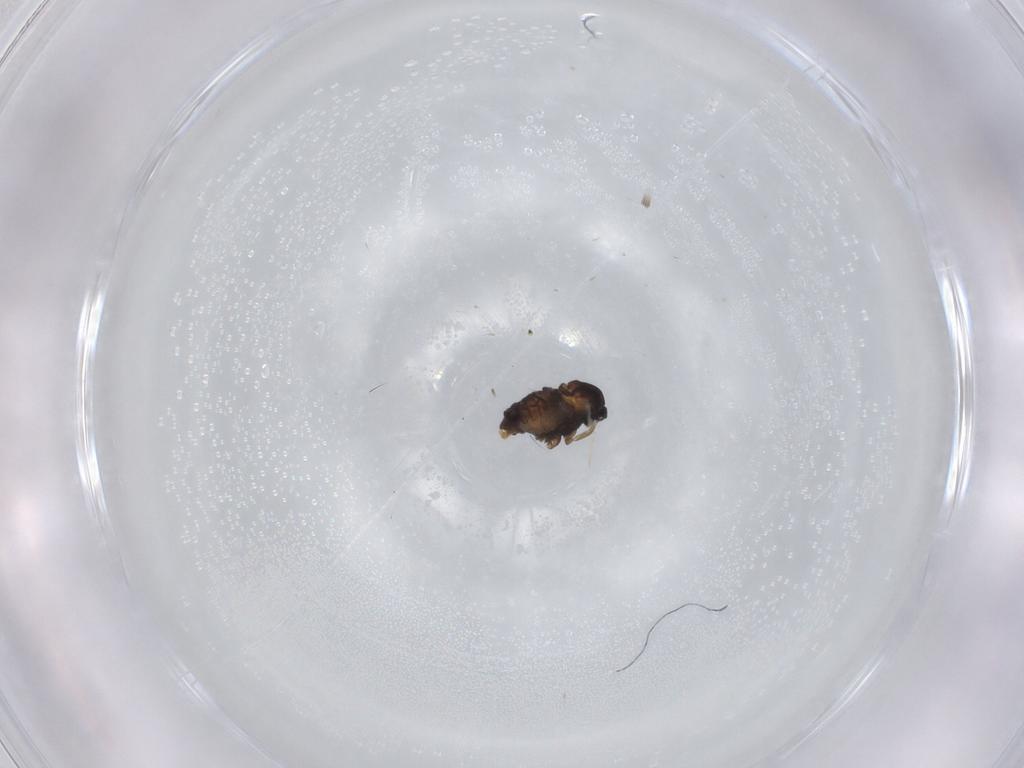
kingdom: Animalia
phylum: Arthropoda
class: Insecta
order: Diptera
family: Cecidomyiidae
